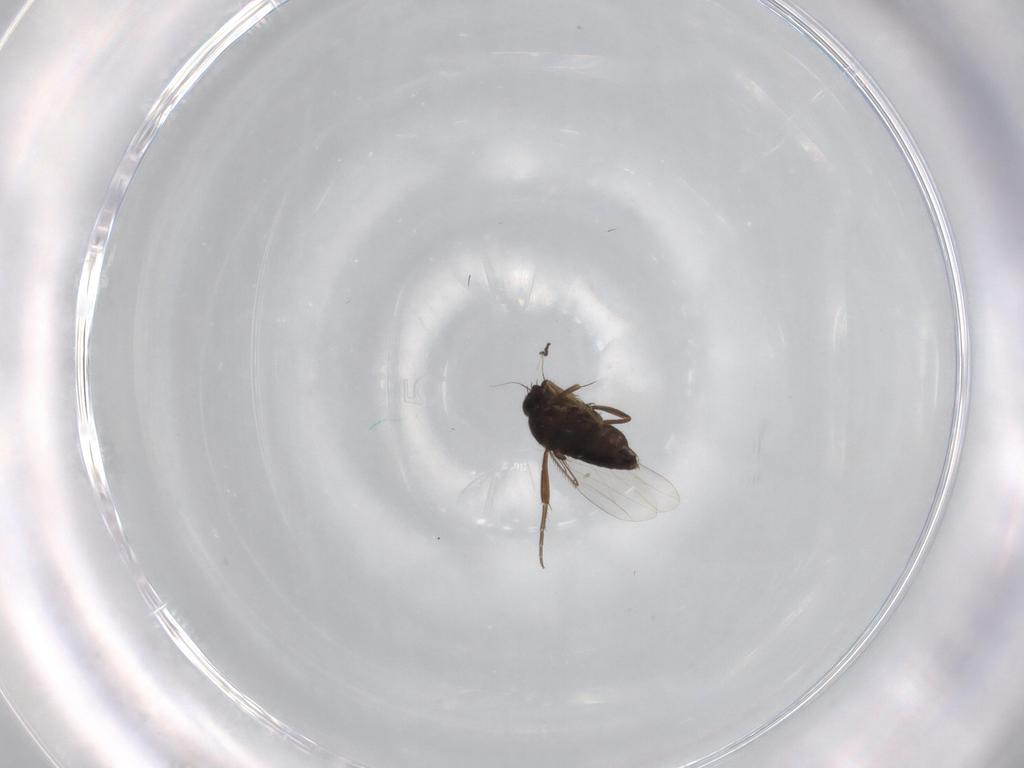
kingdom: Animalia
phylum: Arthropoda
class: Insecta
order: Diptera
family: Phoridae
